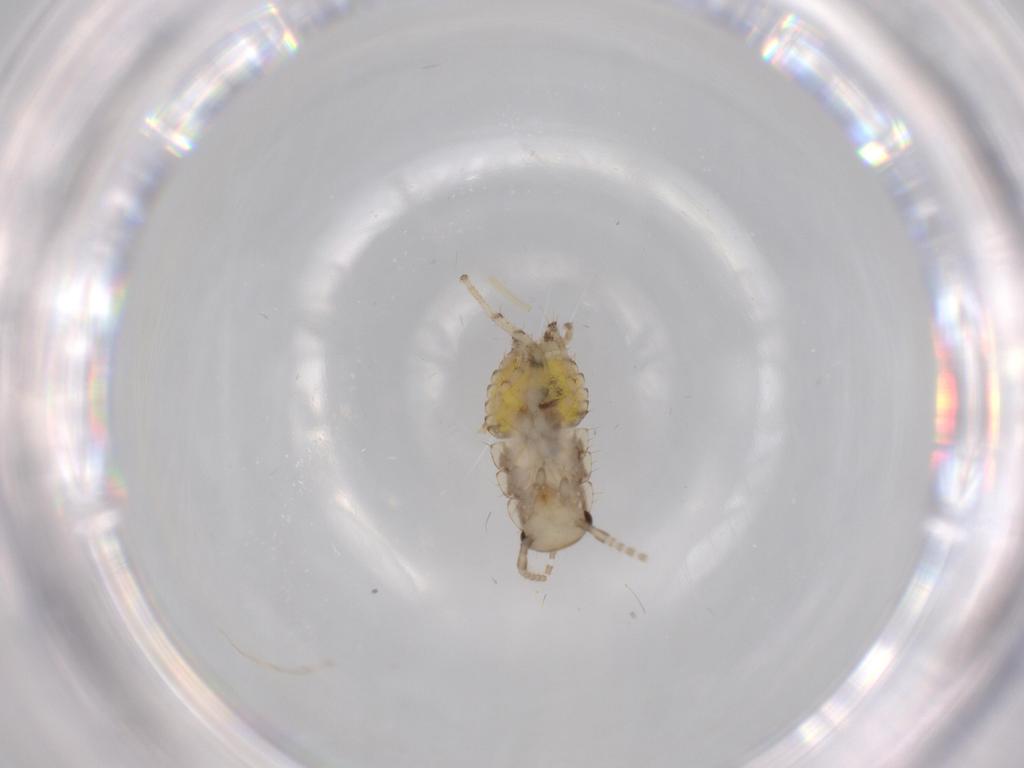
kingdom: Animalia
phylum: Arthropoda
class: Insecta
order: Blattodea
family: Ectobiidae
